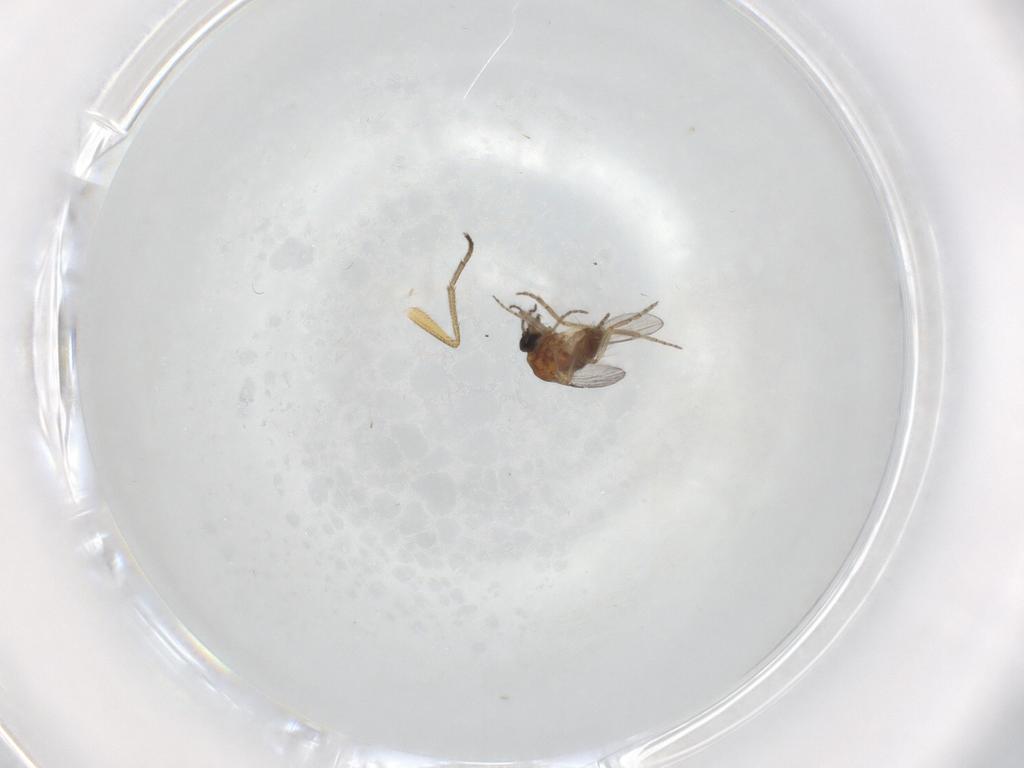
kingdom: Animalia
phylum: Arthropoda
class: Insecta
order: Diptera
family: Ceratopogonidae
